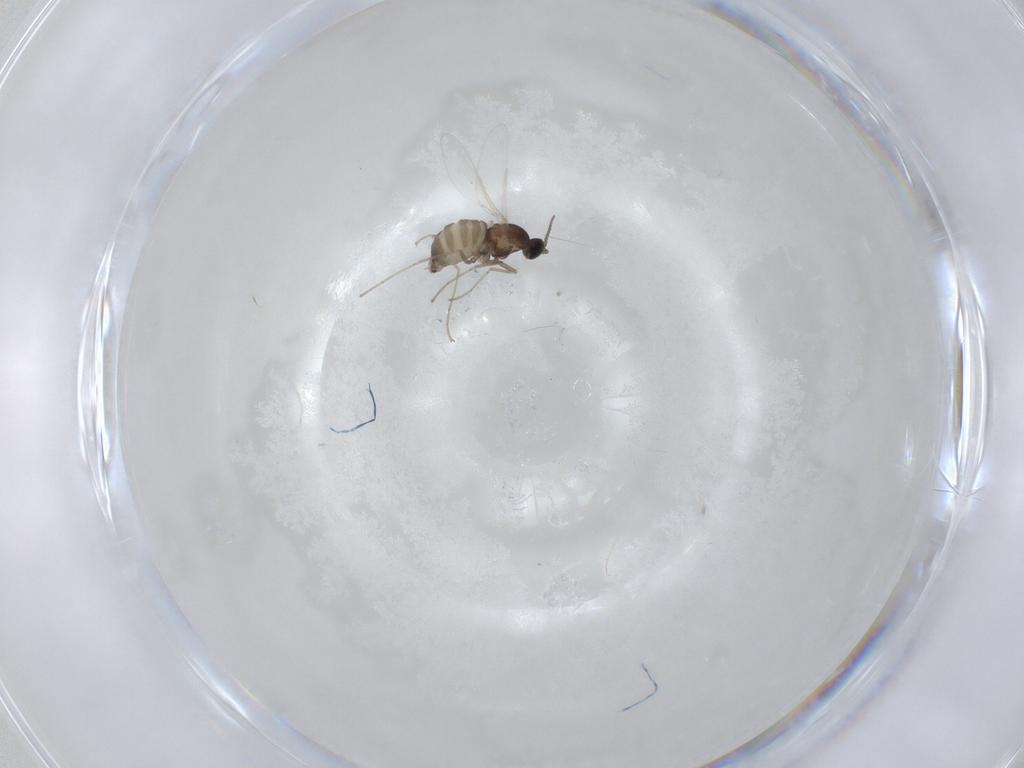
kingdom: Animalia
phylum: Arthropoda
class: Insecta
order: Diptera
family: Cecidomyiidae
